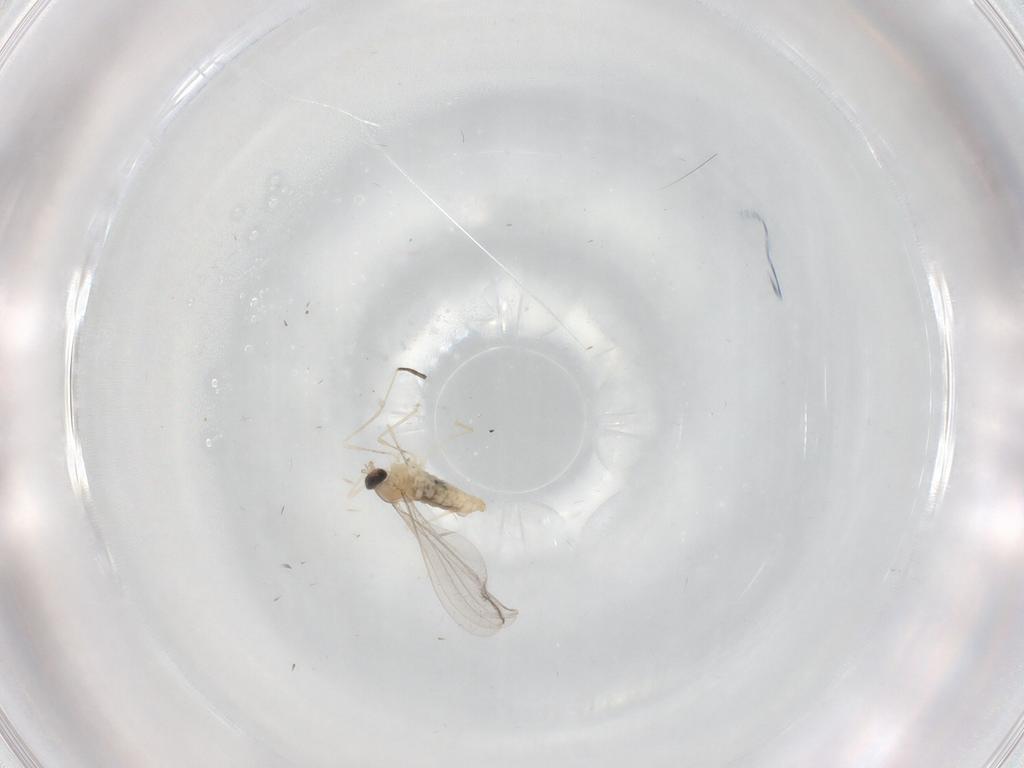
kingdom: Animalia
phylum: Arthropoda
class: Insecta
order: Diptera
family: Cecidomyiidae
